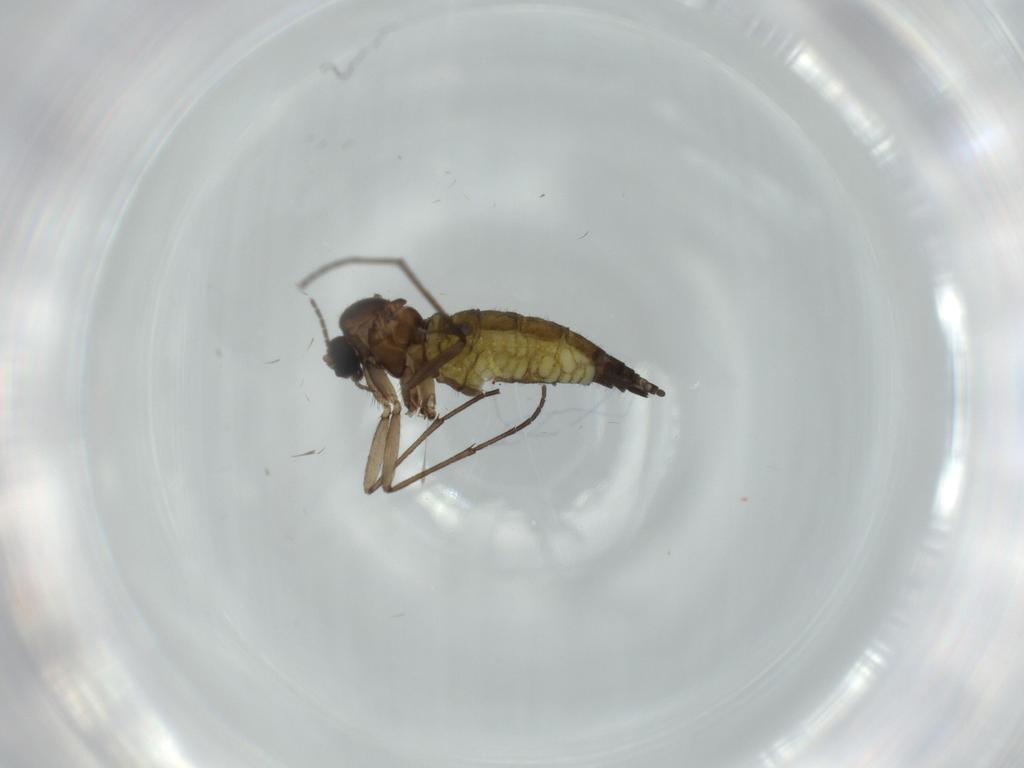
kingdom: Animalia
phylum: Arthropoda
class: Insecta
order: Diptera
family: Sciaridae
